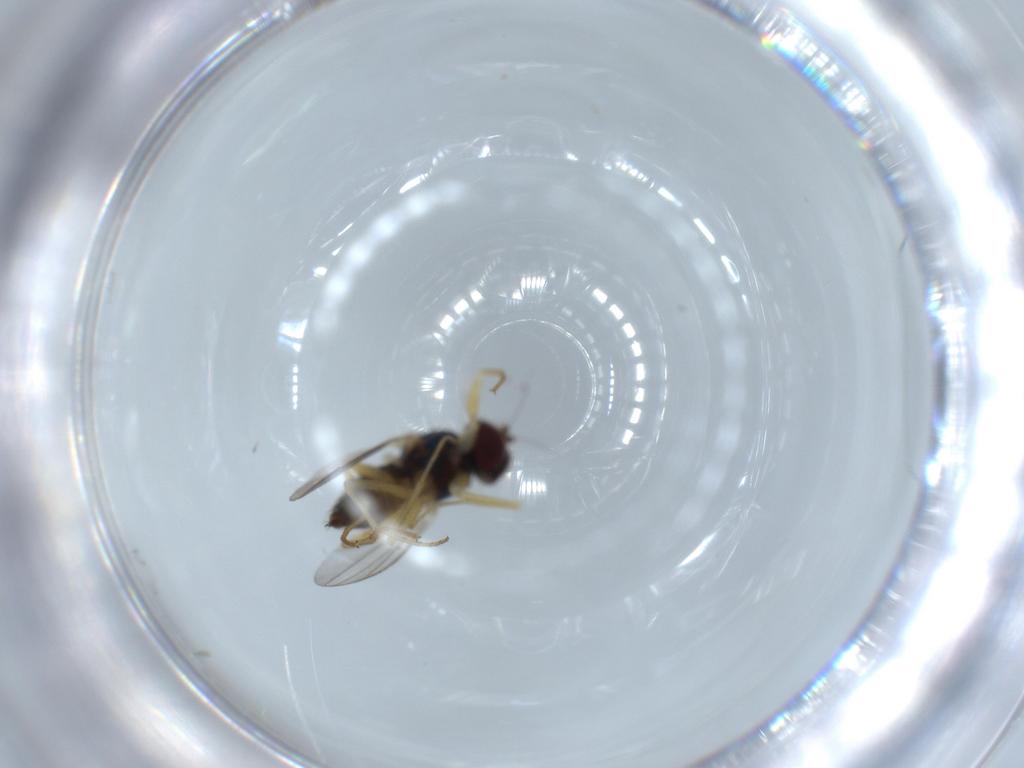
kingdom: Animalia
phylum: Arthropoda
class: Insecta
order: Diptera
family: Dolichopodidae
